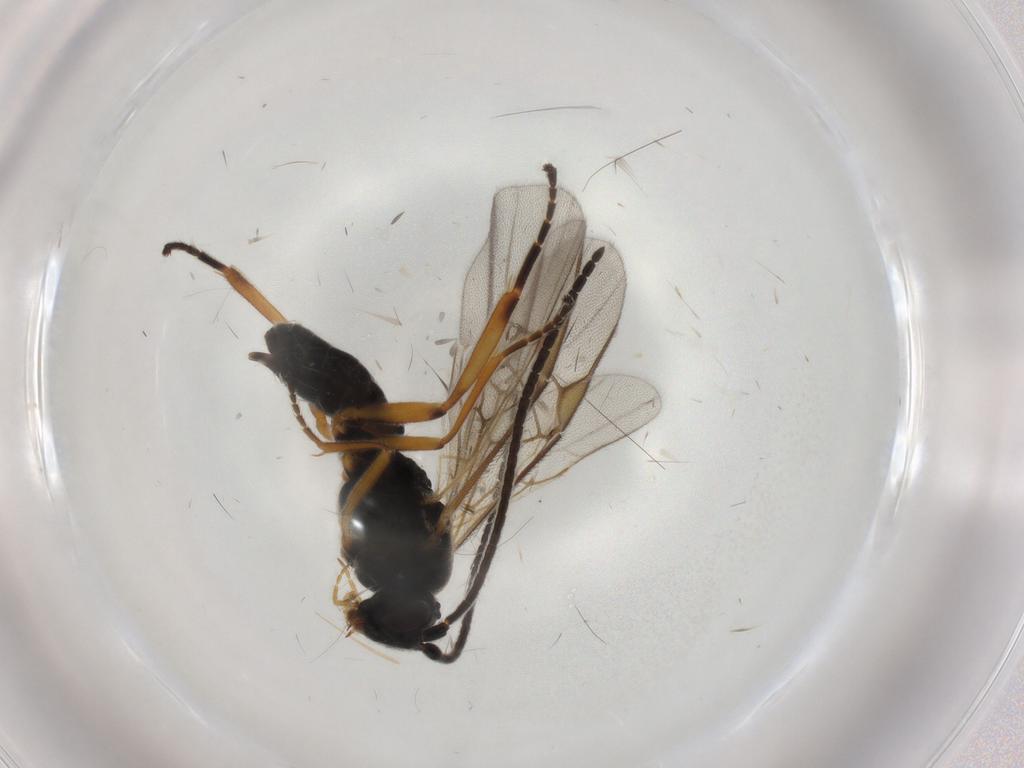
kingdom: Animalia
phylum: Arthropoda
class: Insecta
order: Hymenoptera
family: Braconidae
